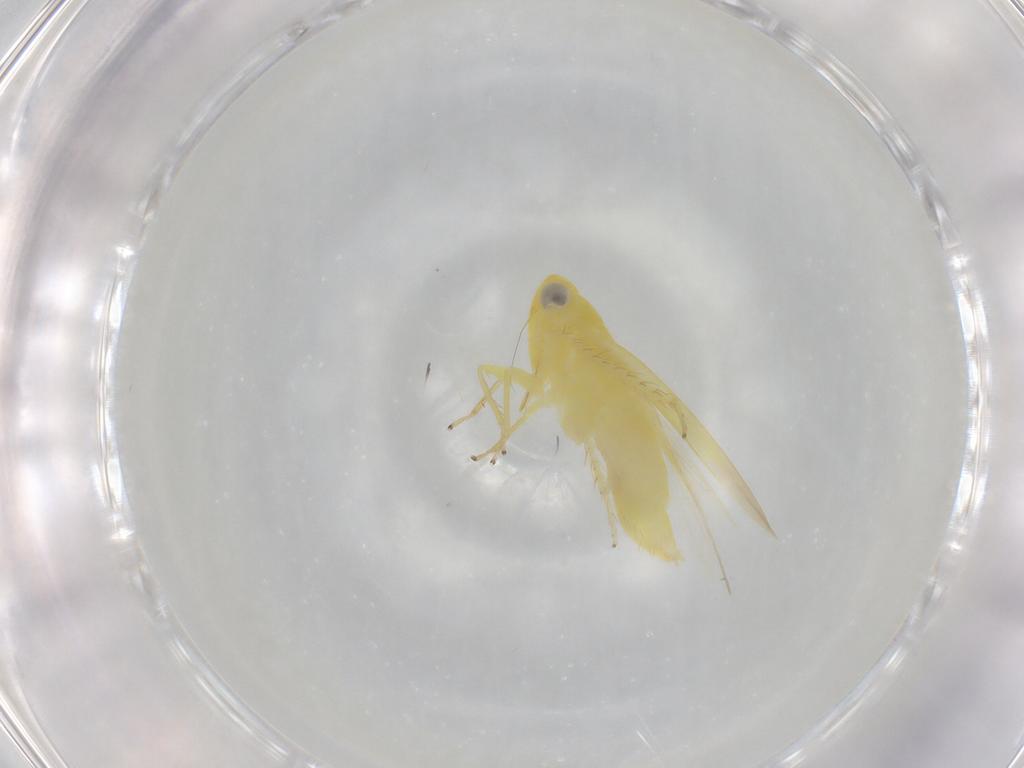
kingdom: Animalia
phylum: Arthropoda
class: Insecta
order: Hemiptera
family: Cicadellidae
